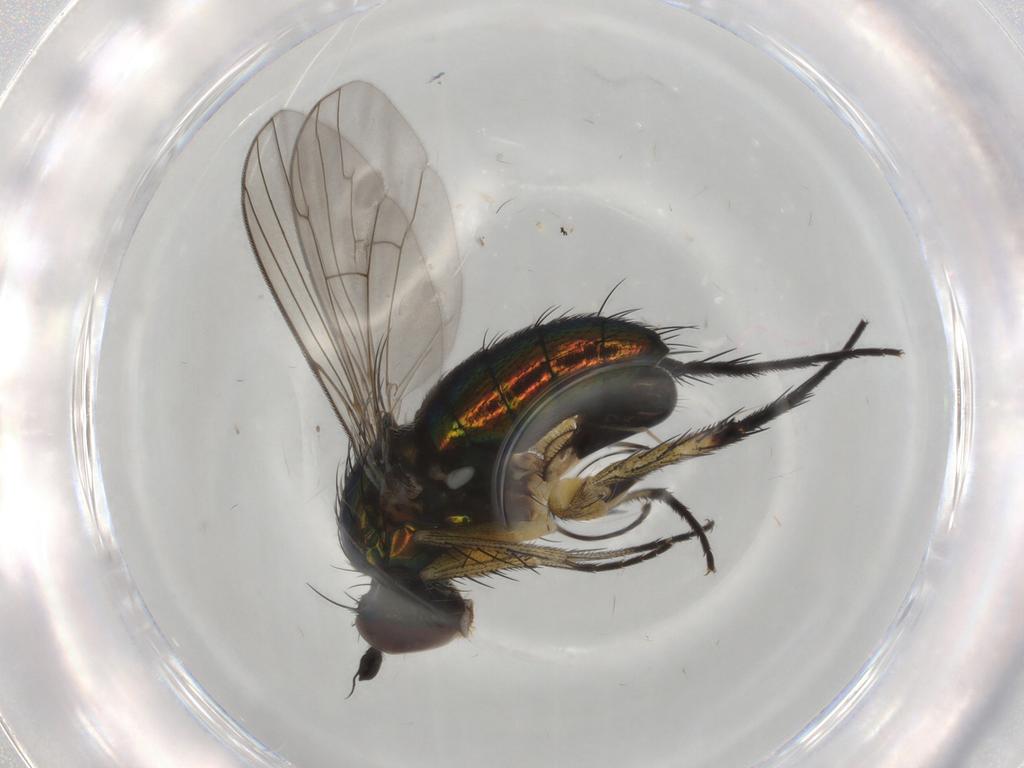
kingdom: Animalia
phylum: Arthropoda
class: Insecta
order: Diptera
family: Dolichopodidae
